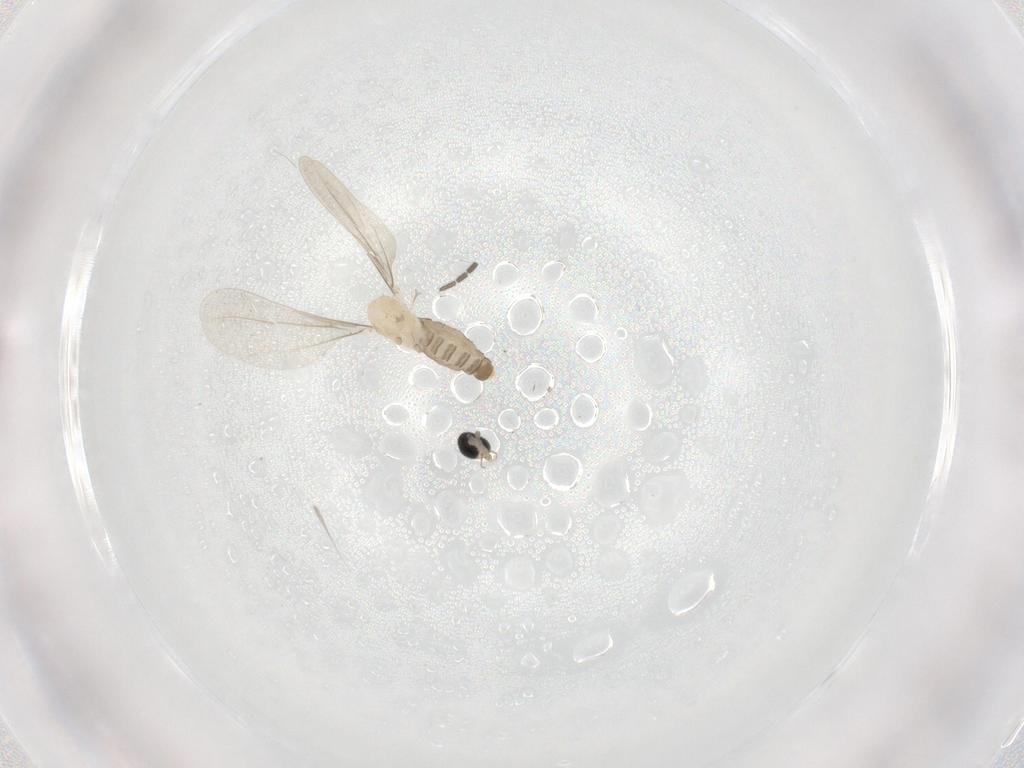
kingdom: Animalia
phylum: Arthropoda
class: Insecta
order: Diptera
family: Cecidomyiidae
